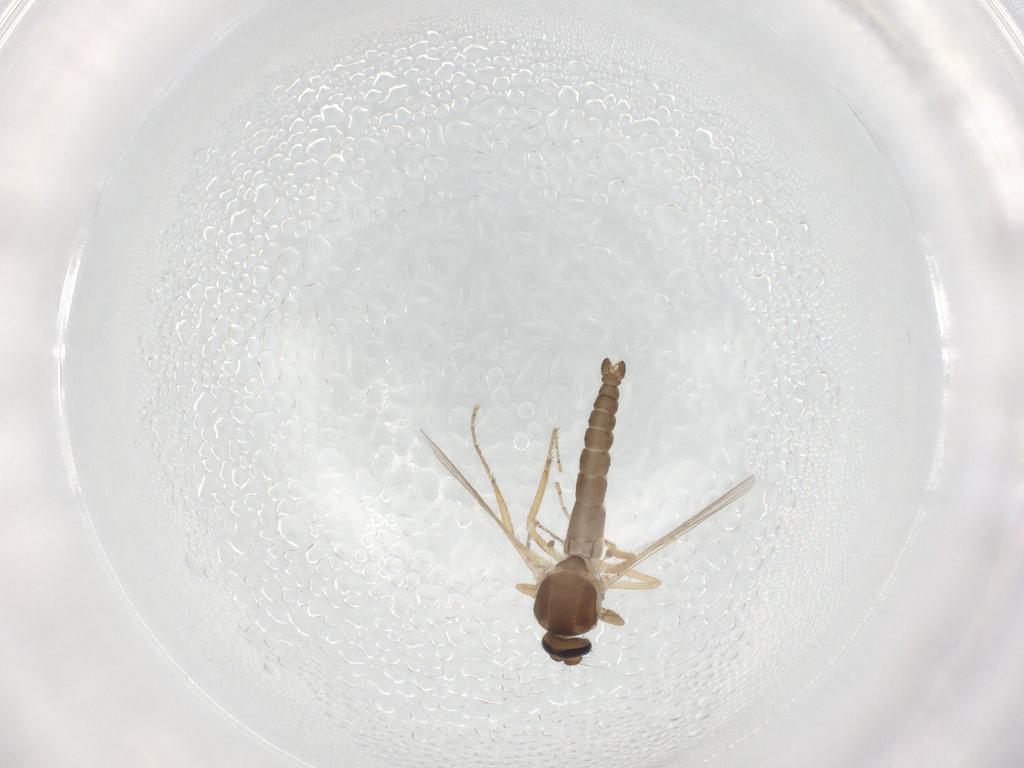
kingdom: Animalia
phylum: Arthropoda
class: Insecta
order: Diptera
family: Ceratopogonidae
